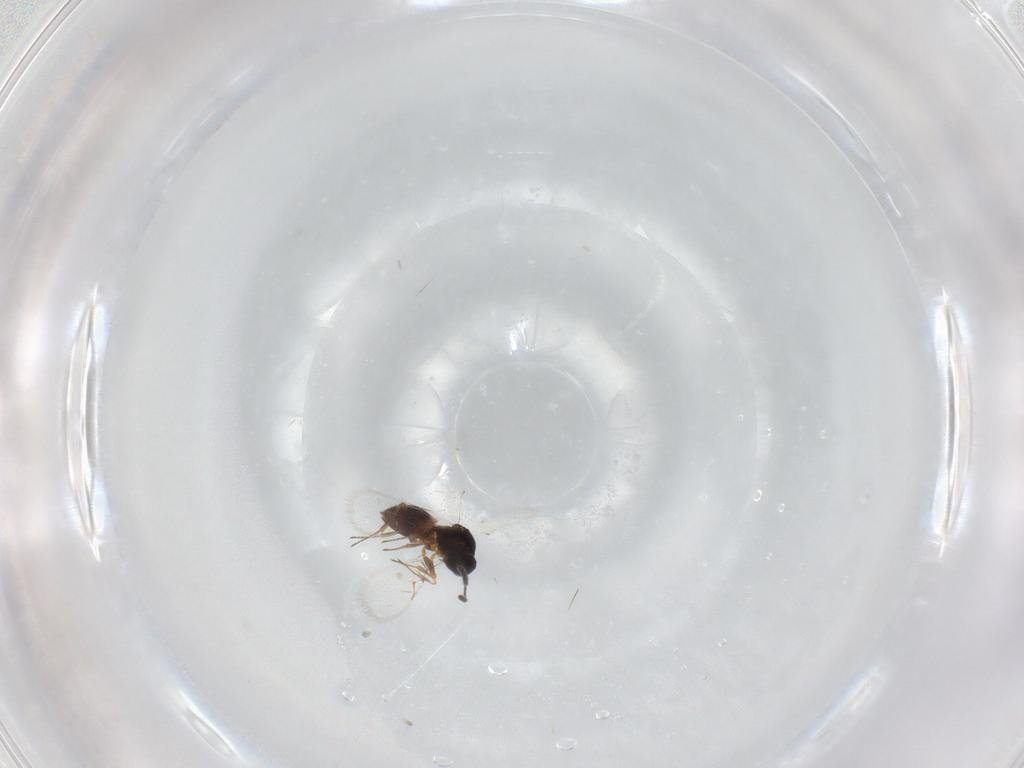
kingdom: Animalia
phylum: Arthropoda
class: Insecta
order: Hymenoptera
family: Figitidae
